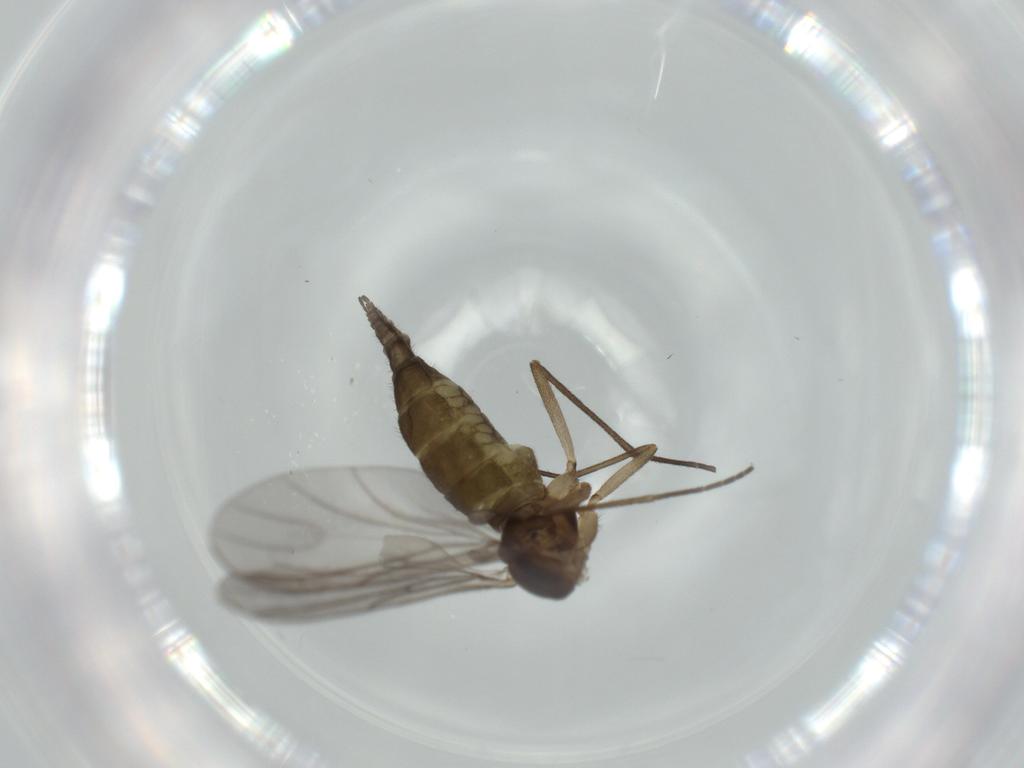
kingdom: Animalia
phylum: Arthropoda
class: Insecta
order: Diptera
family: Sciaridae
